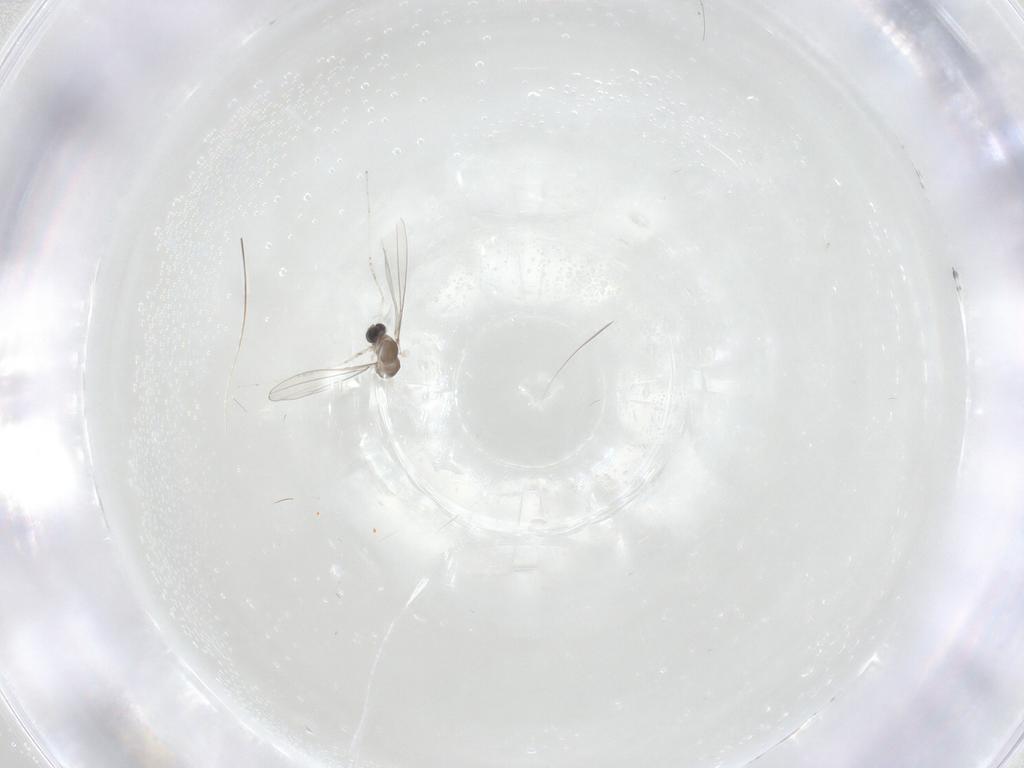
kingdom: Animalia
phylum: Arthropoda
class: Insecta
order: Diptera
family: Cecidomyiidae
